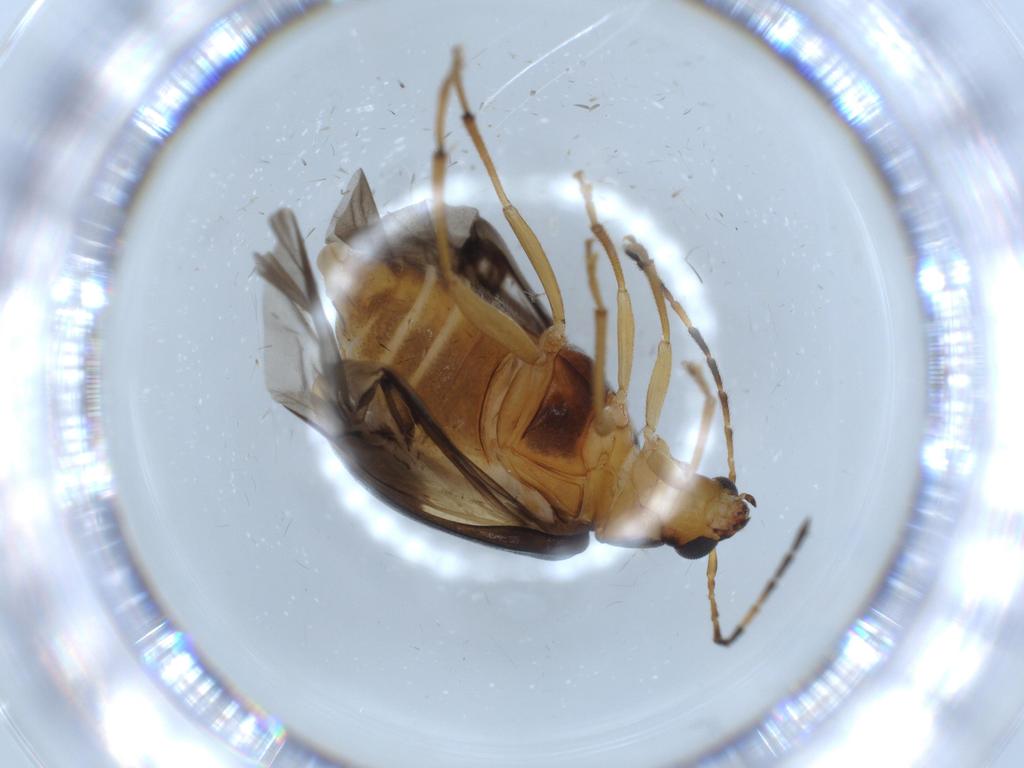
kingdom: Animalia
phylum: Arthropoda
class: Insecta
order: Coleoptera
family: Chrysomelidae
